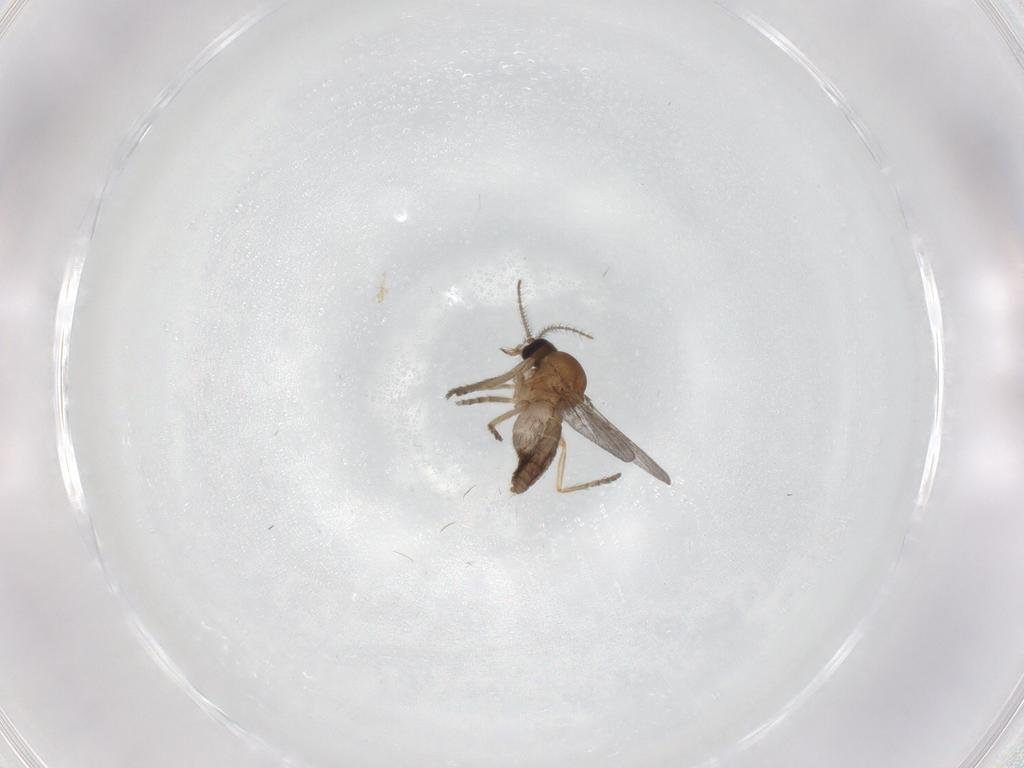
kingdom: Animalia
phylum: Arthropoda
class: Insecta
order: Diptera
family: Ceratopogonidae
